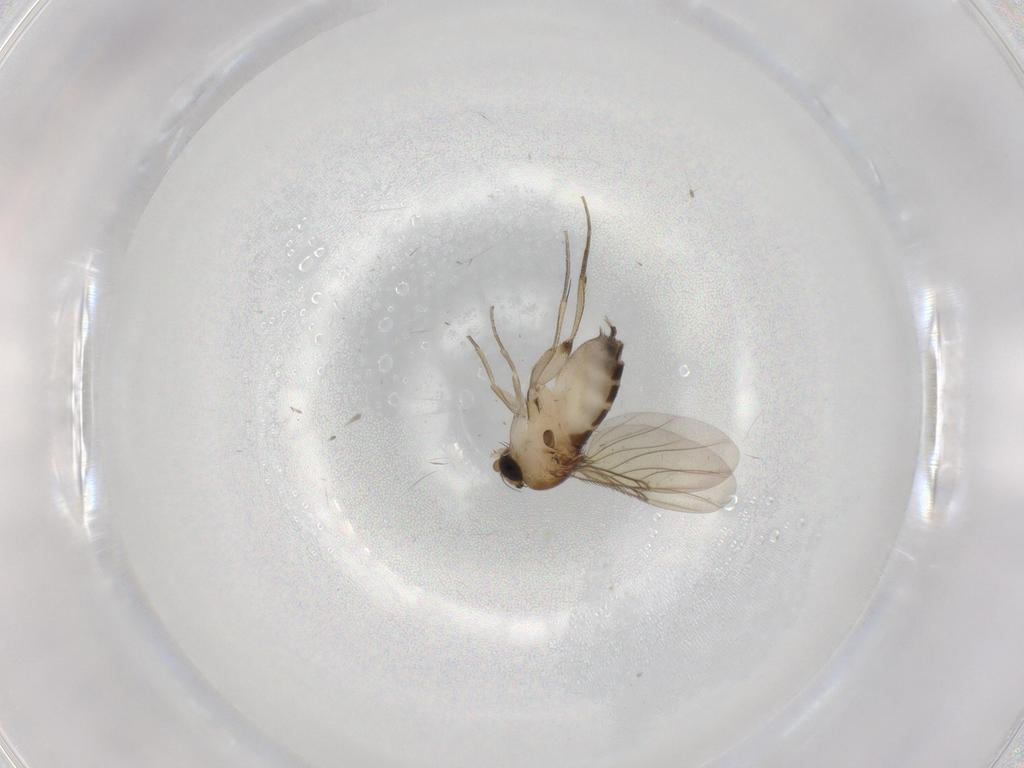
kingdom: Animalia
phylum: Arthropoda
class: Insecta
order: Diptera
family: Phoridae
